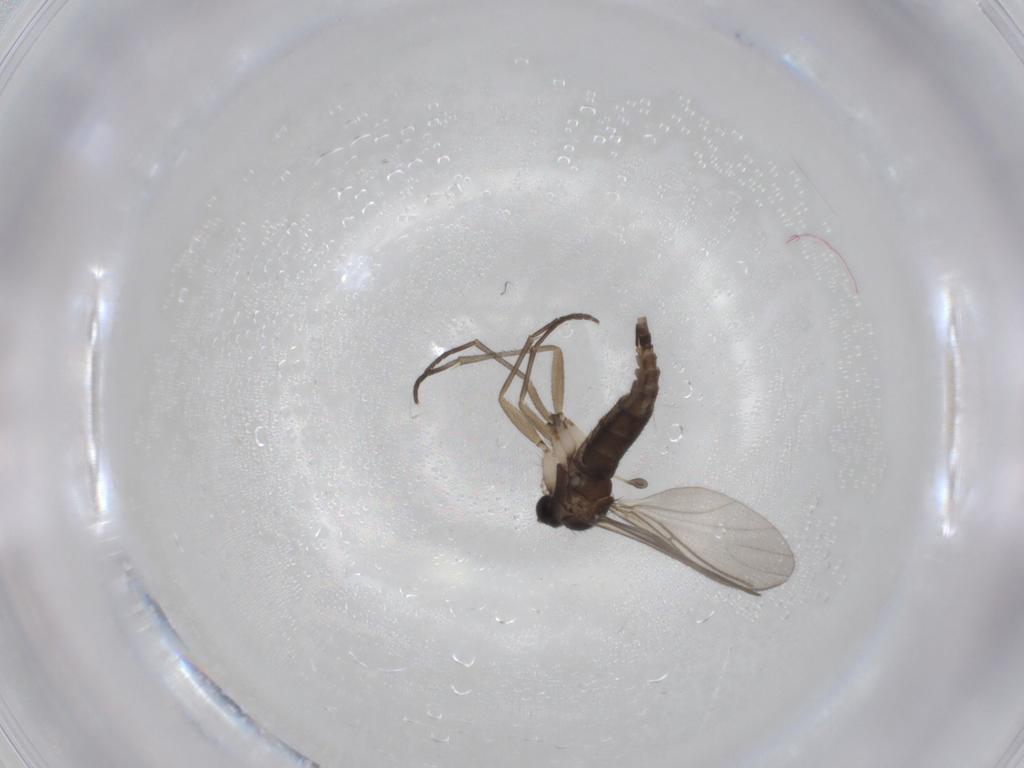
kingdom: Animalia
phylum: Arthropoda
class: Insecta
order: Diptera
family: Sciaridae
